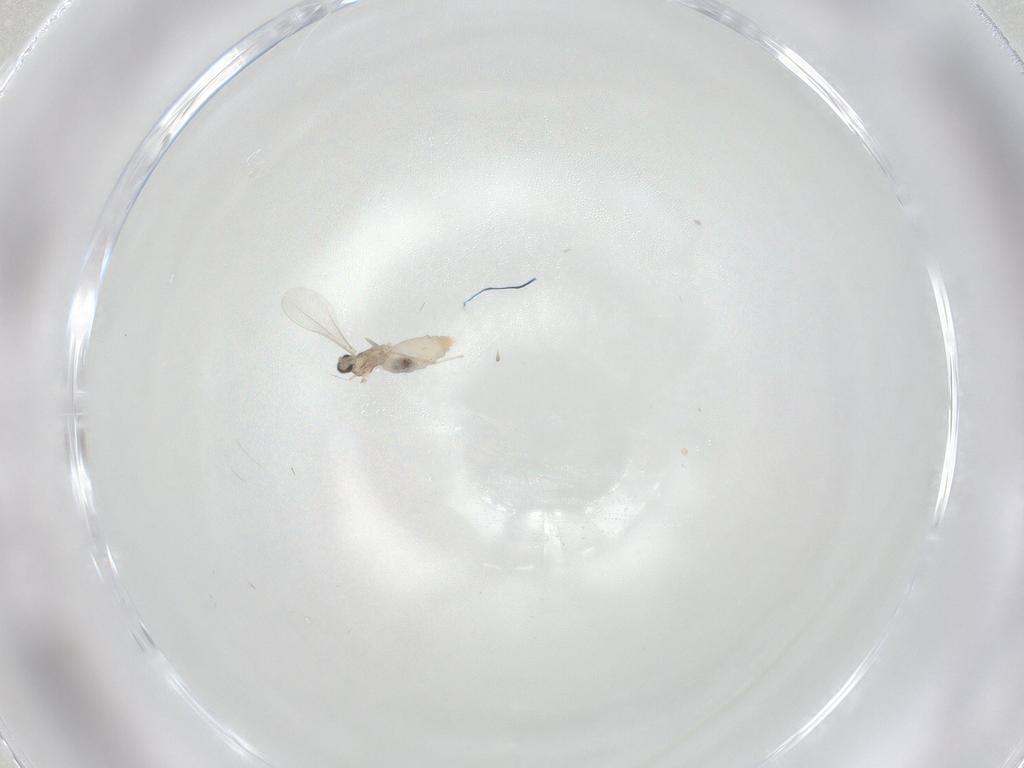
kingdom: Animalia
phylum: Arthropoda
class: Insecta
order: Diptera
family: Cecidomyiidae
